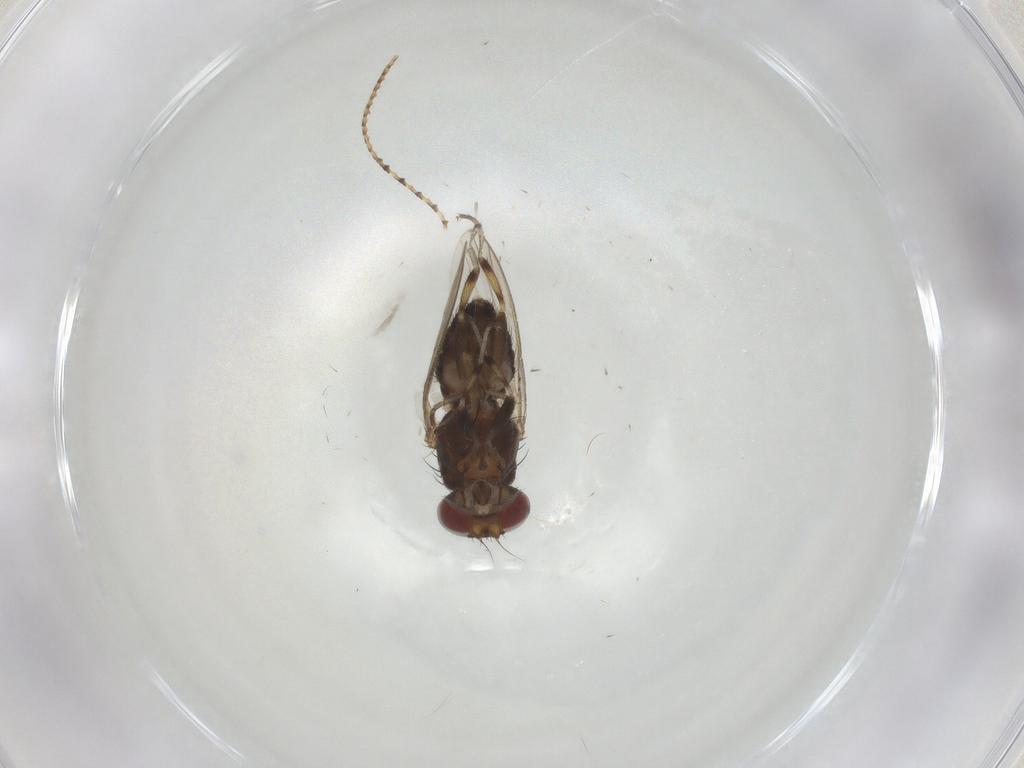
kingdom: Animalia
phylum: Arthropoda
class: Insecta
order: Diptera
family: Heleomyzidae
